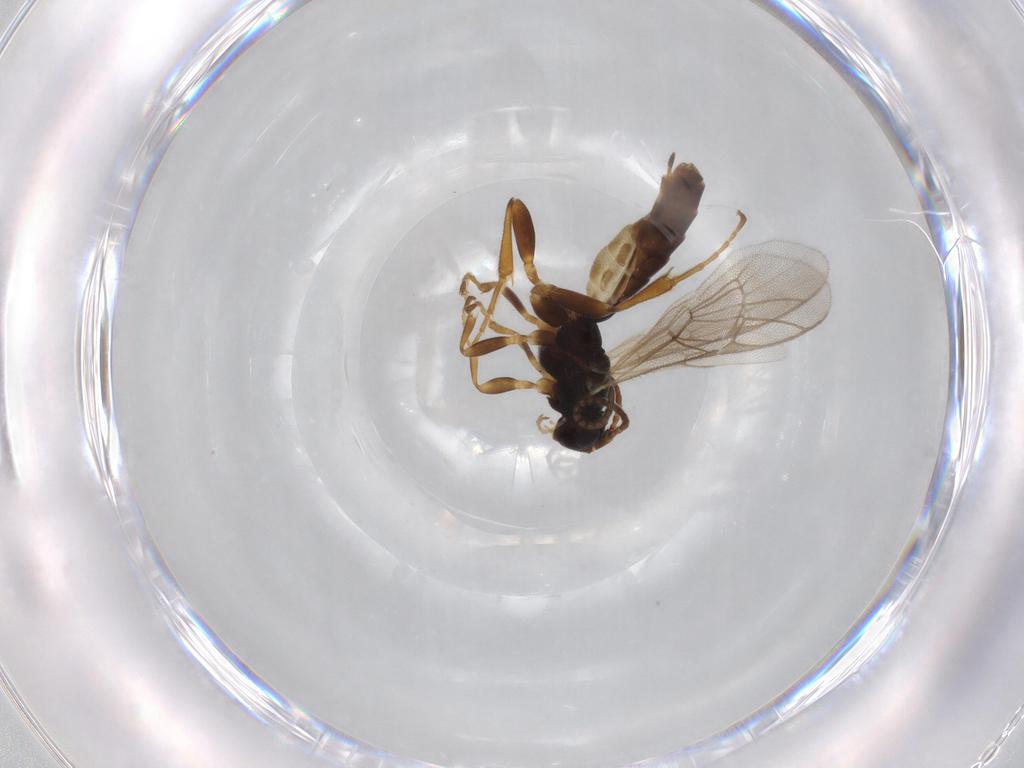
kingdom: Animalia
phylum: Arthropoda
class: Insecta
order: Hymenoptera
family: Ichneumonidae
